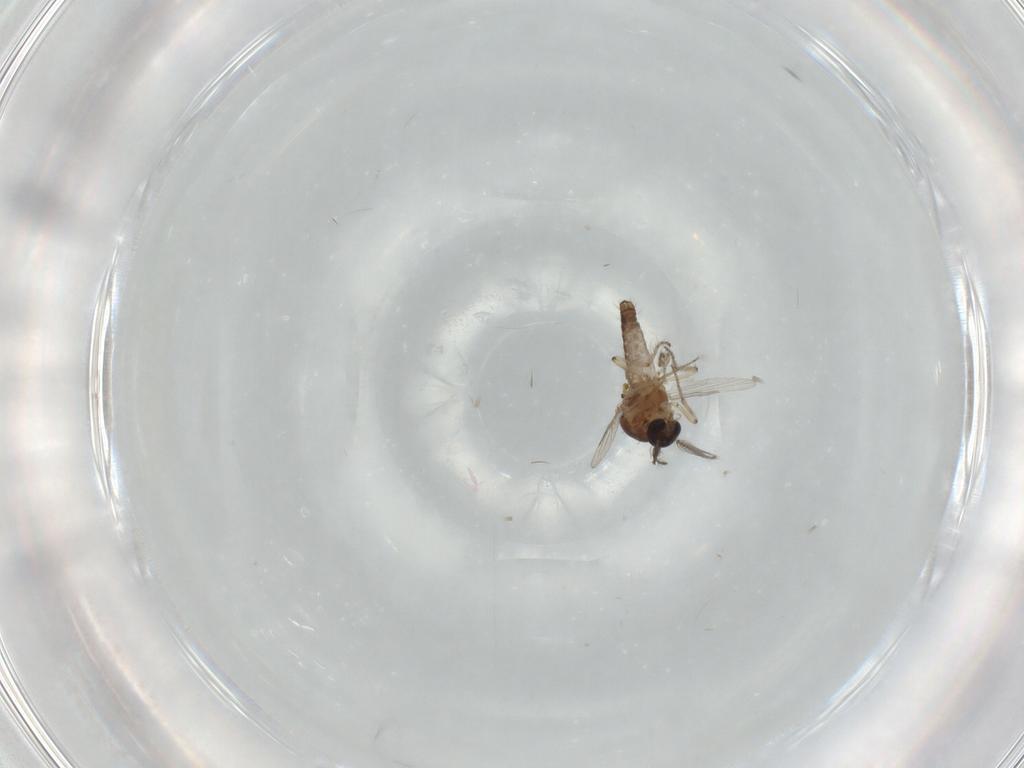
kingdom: Animalia
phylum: Arthropoda
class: Insecta
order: Diptera
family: Ceratopogonidae
